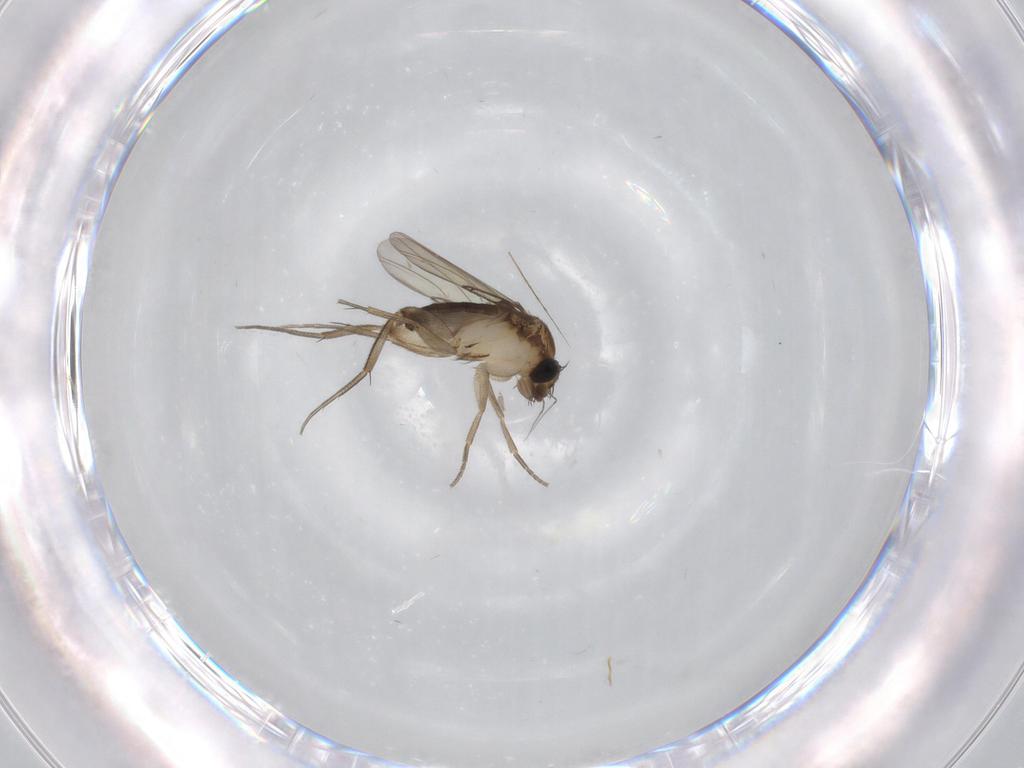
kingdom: Animalia
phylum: Arthropoda
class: Insecta
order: Diptera
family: Phoridae
